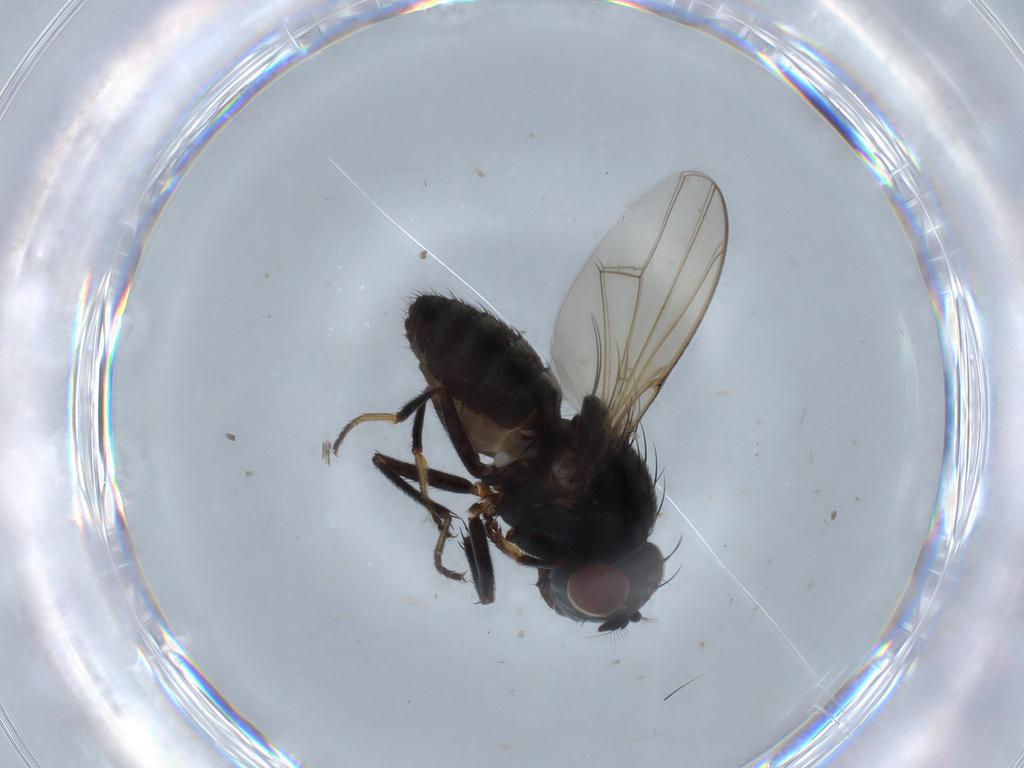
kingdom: Animalia
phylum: Arthropoda
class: Insecta
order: Diptera
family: Ephydridae
